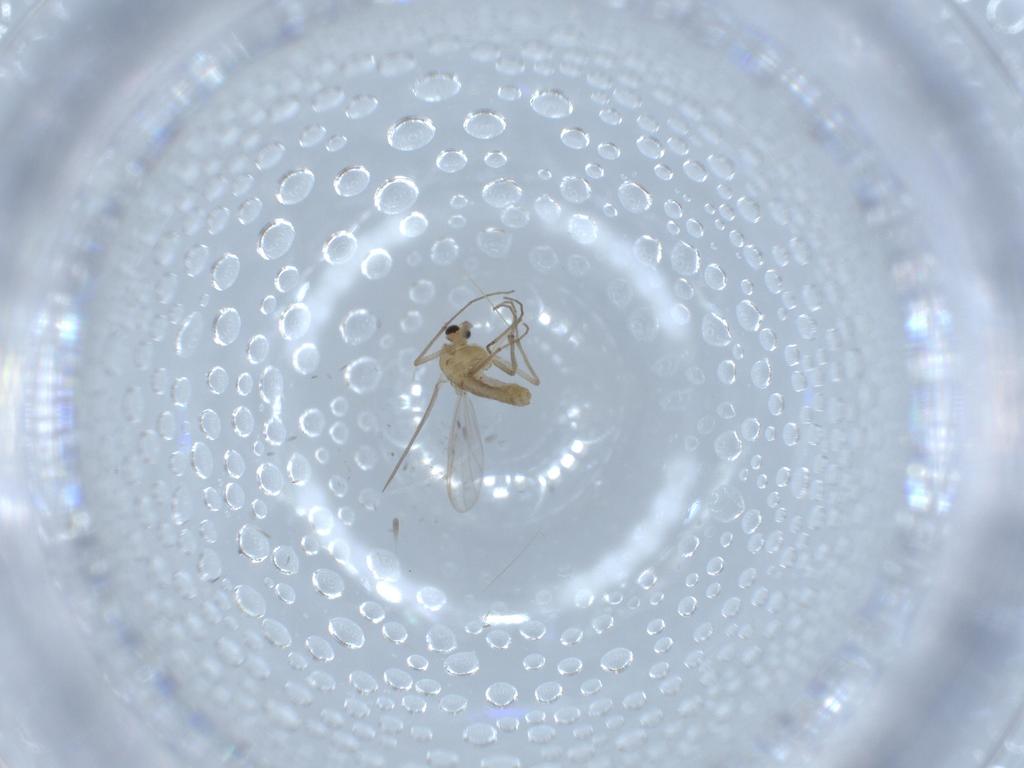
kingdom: Animalia
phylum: Arthropoda
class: Insecta
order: Diptera
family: Chironomidae
